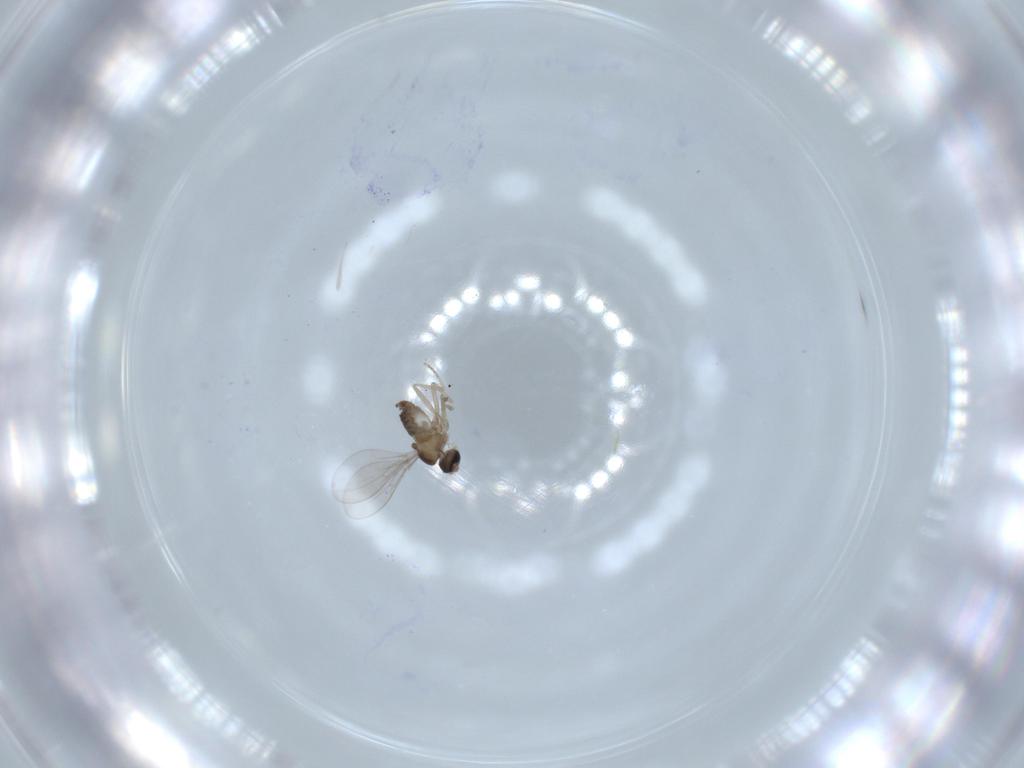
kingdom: Animalia
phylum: Arthropoda
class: Insecta
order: Diptera
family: Cecidomyiidae
